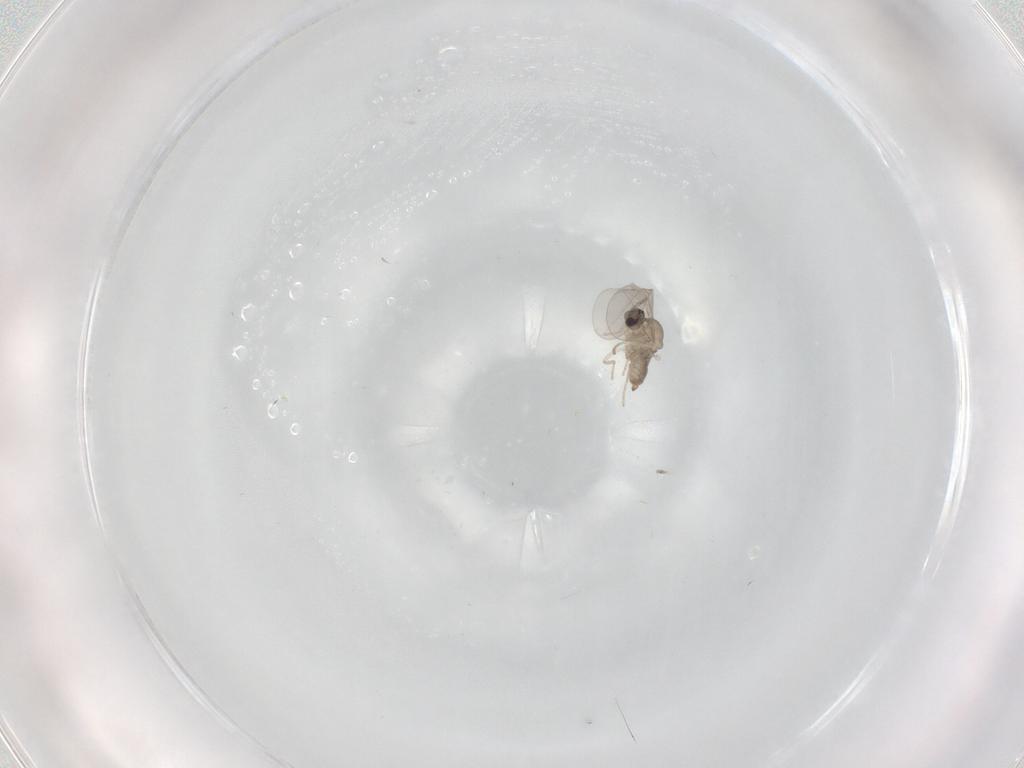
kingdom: Animalia
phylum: Arthropoda
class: Insecta
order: Diptera
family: Cecidomyiidae
